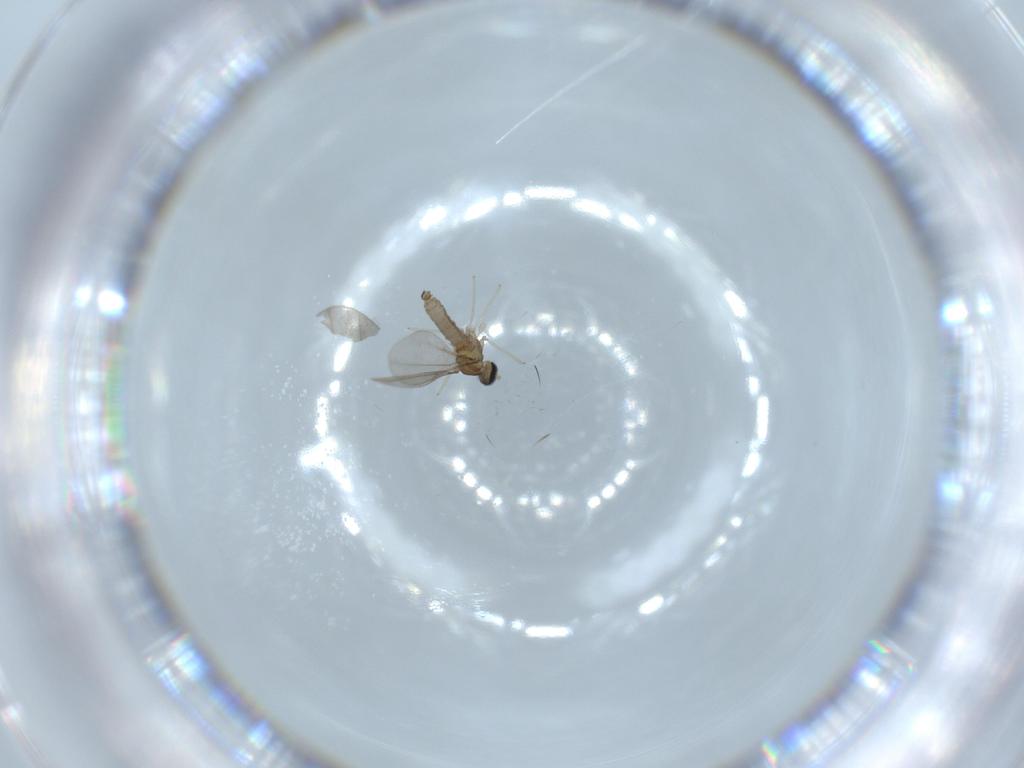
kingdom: Animalia
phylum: Arthropoda
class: Insecta
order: Diptera
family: Cecidomyiidae
